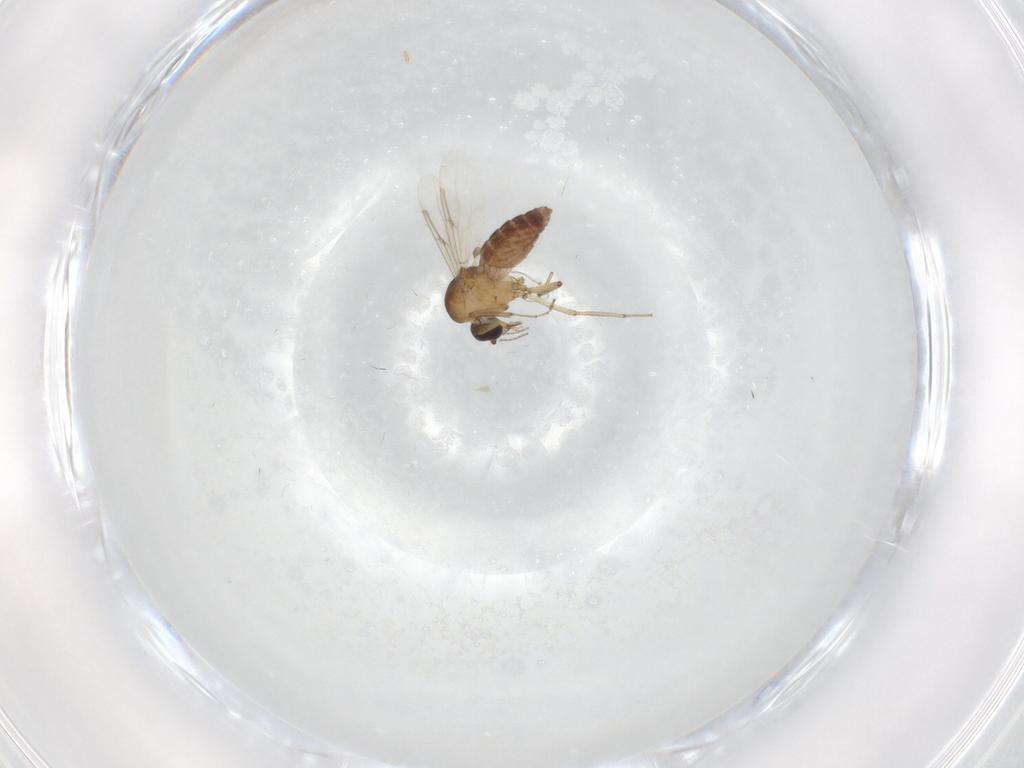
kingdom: Animalia
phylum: Arthropoda
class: Insecta
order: Diptera
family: Ceratopogonidae
